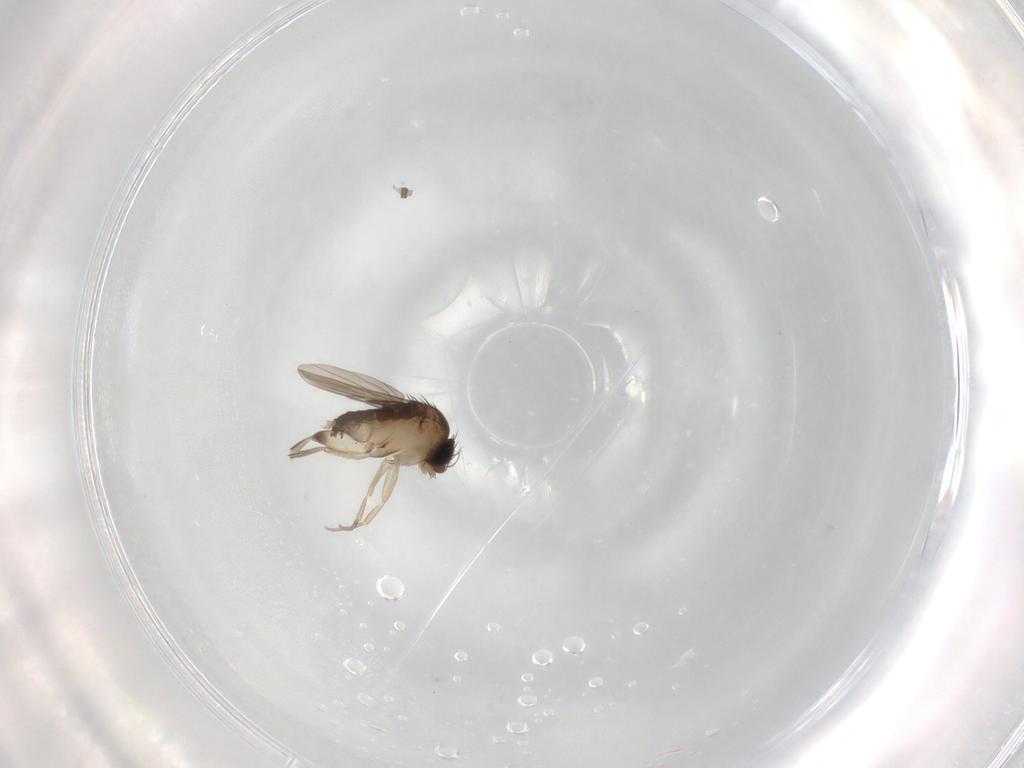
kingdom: Animalia
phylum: Arthropoda
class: Insecta
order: Diptera
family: Phoridae
